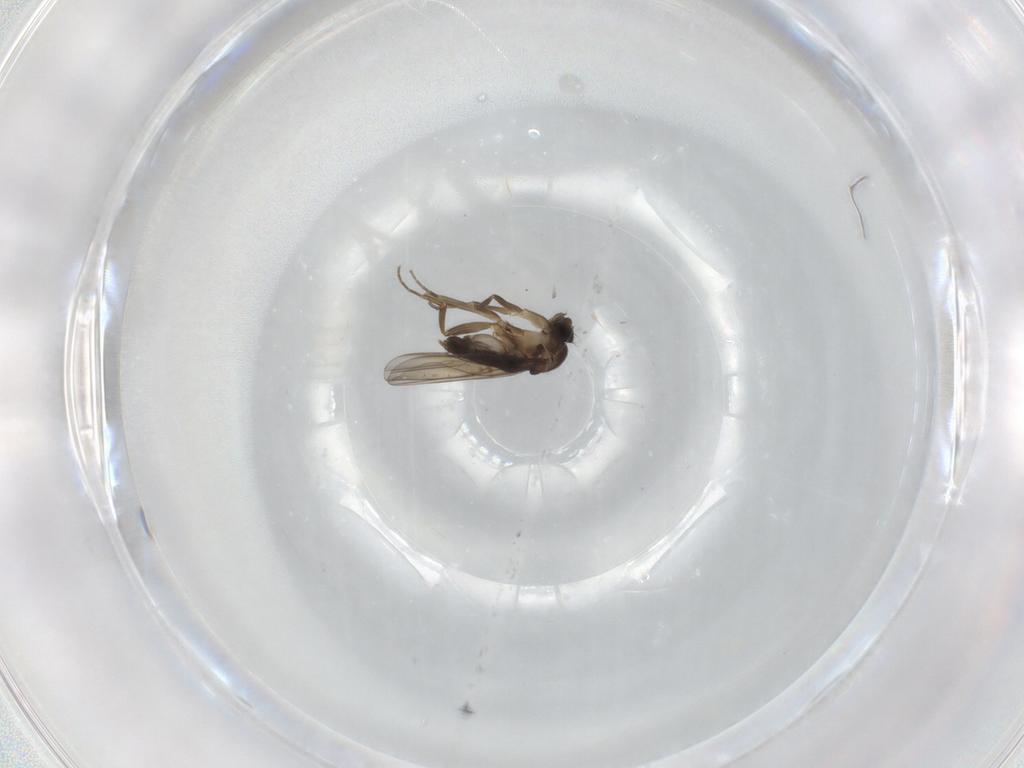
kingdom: Animalia
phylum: Arthropoda
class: Insecta
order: Diptera
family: Phoridae
